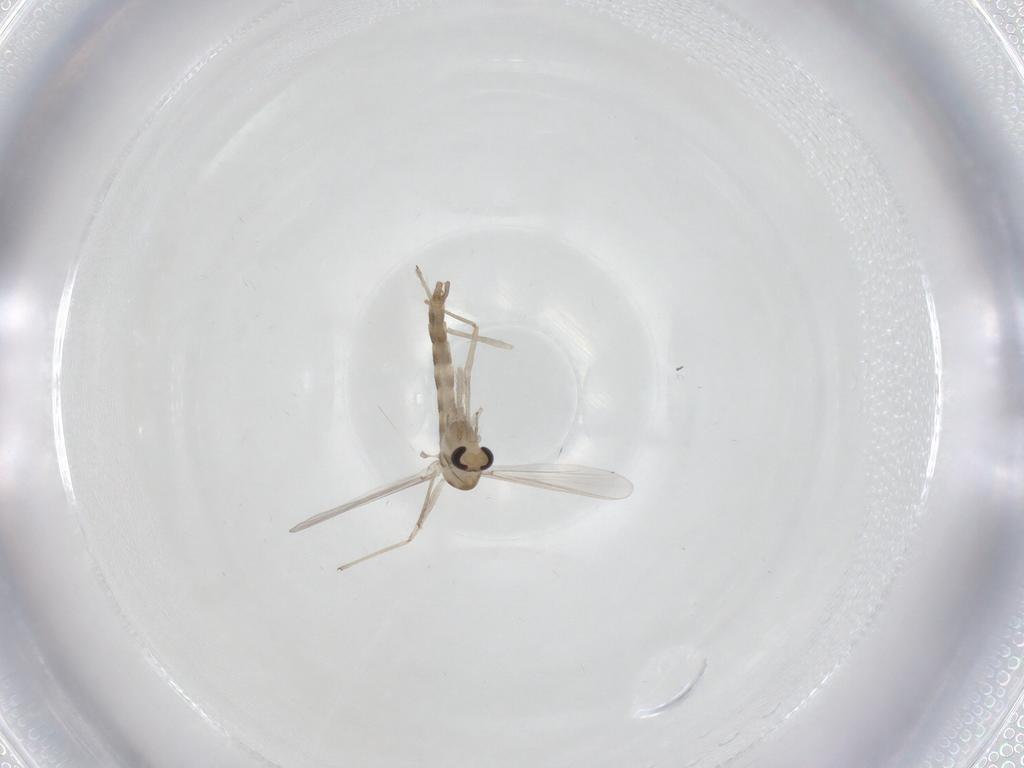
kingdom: Animalia
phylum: Arthropoda
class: Insecta
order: Diptera
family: Chironomidae
